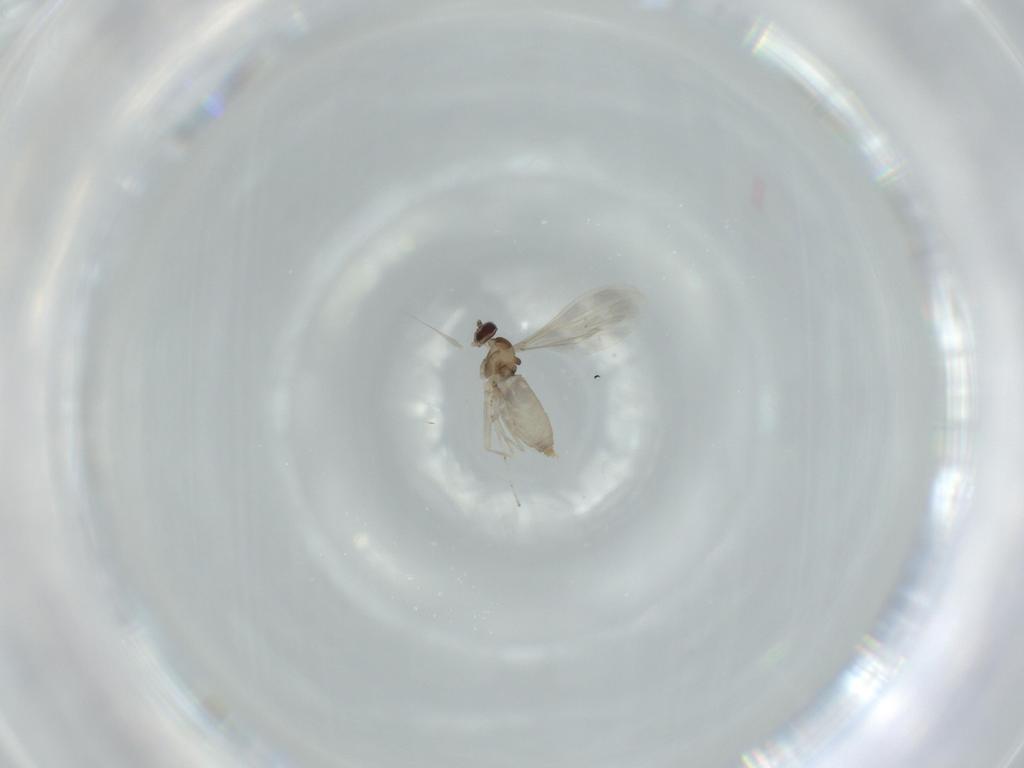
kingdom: Animalia
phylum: Arthropoda
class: Insecta
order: Diptera
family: Cecidomyiidae
